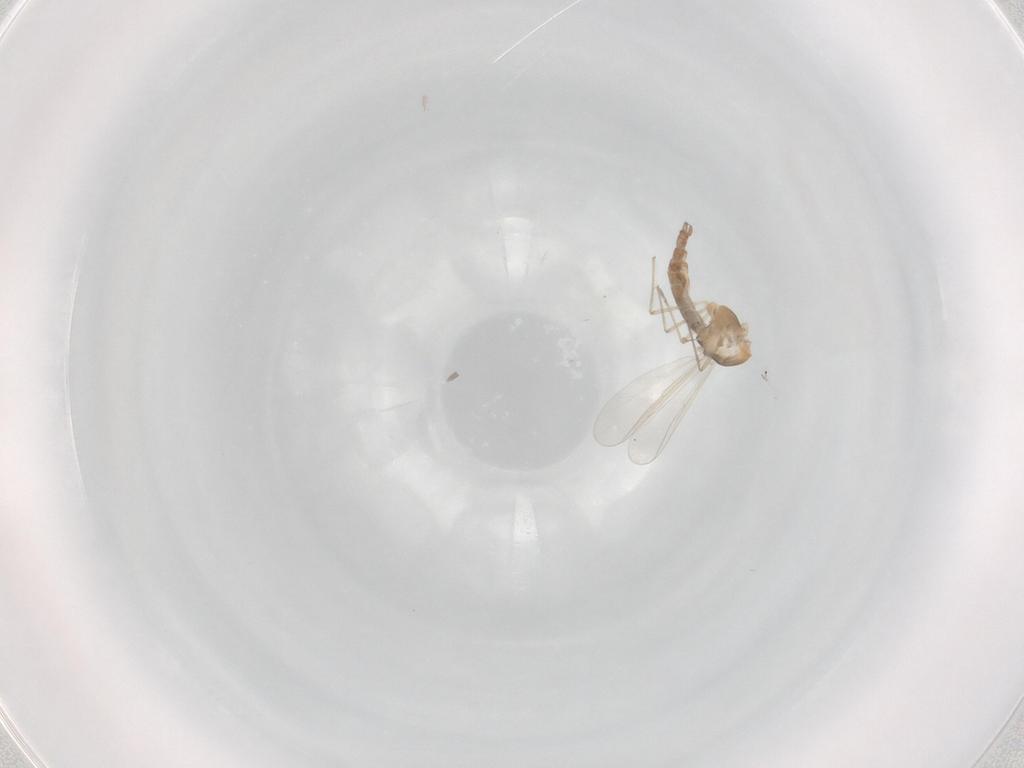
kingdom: Animalia
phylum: Arthropoda
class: Insecta
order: Diptera
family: Chironomidae
